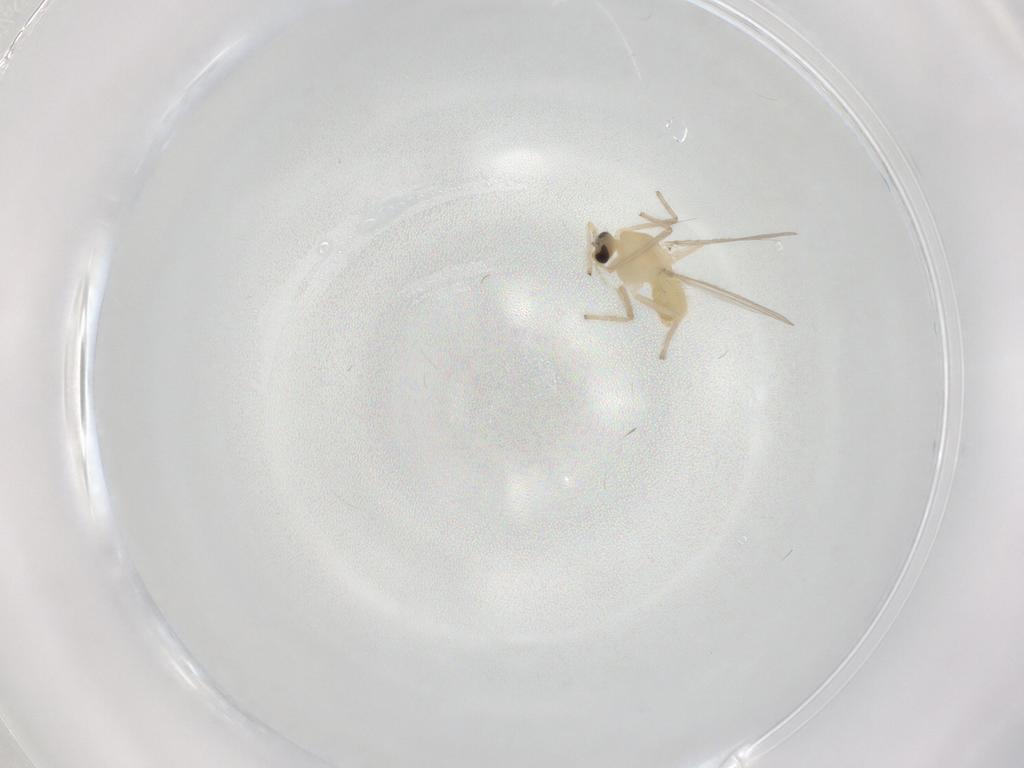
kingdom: Animalia
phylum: Arthropoda
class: Insecta
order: Diptera
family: Chironomidae
